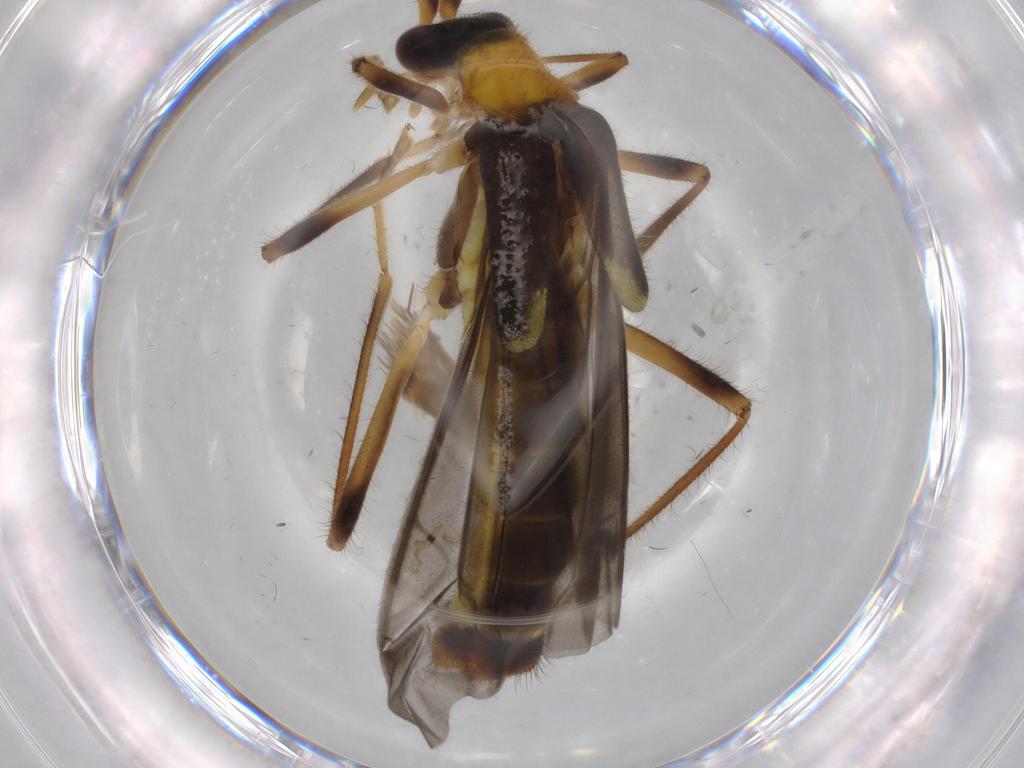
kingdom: Animalia
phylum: Arthropoda
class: Insecta
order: Coleoptera
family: Cantharidae
